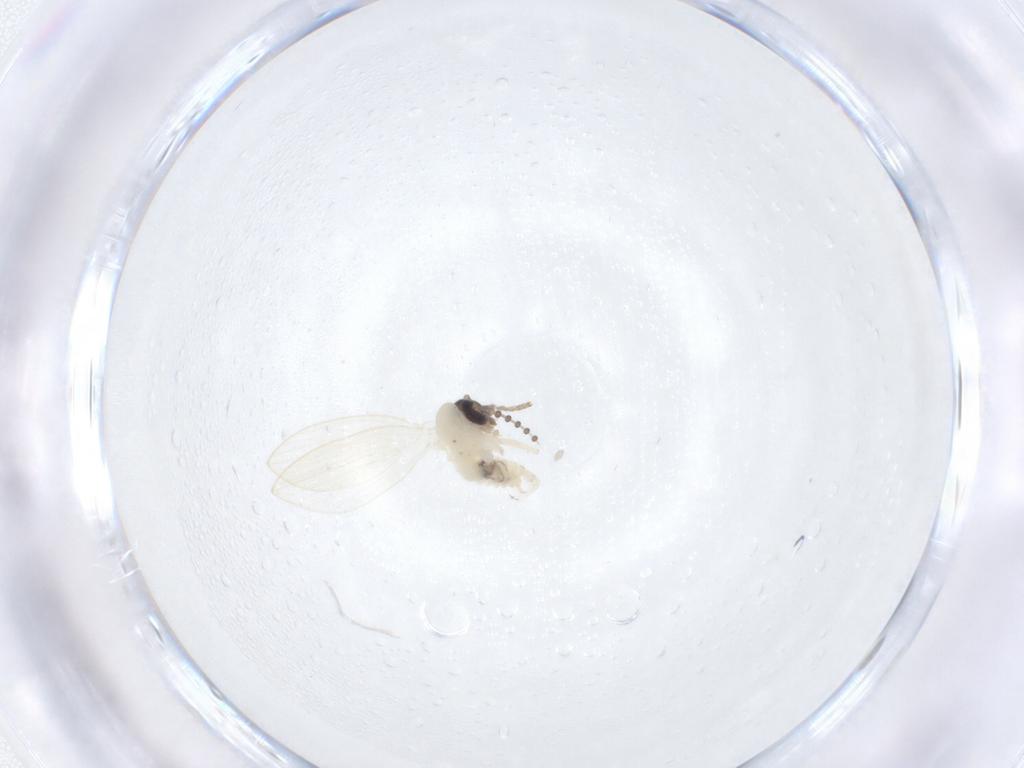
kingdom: Animalia
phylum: Arthropoda
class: Insecta
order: Diptera
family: Psychodidae
